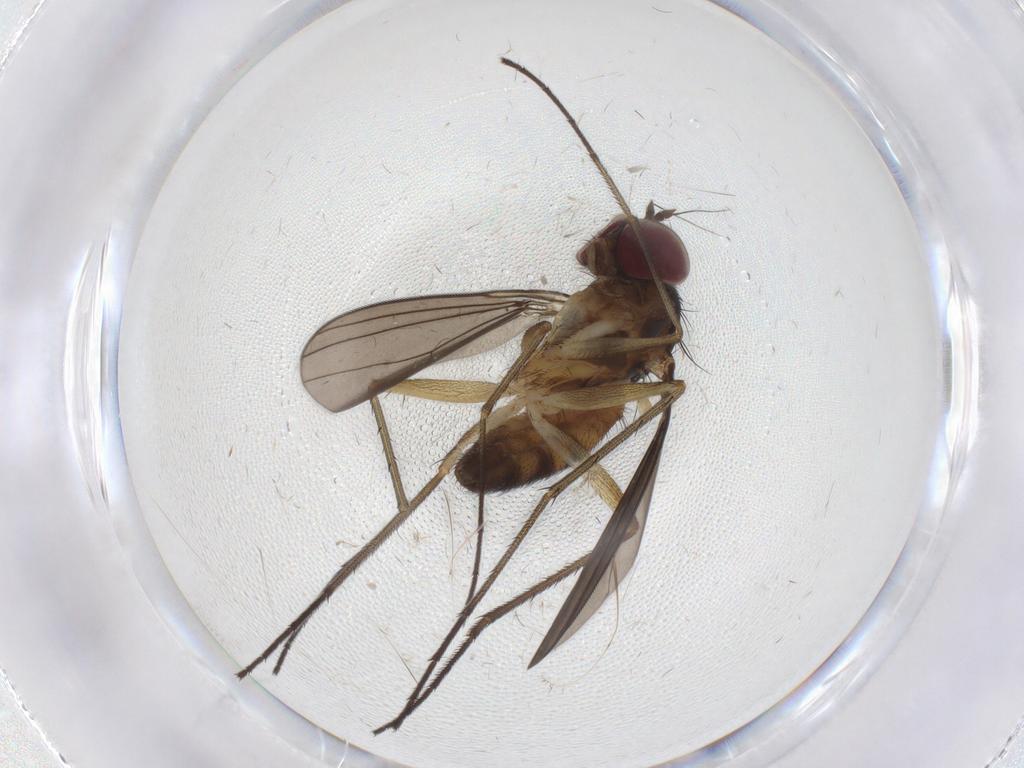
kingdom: Animalia
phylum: Arthropoda
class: Insecta
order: Diptera
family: Dolichopodidae
